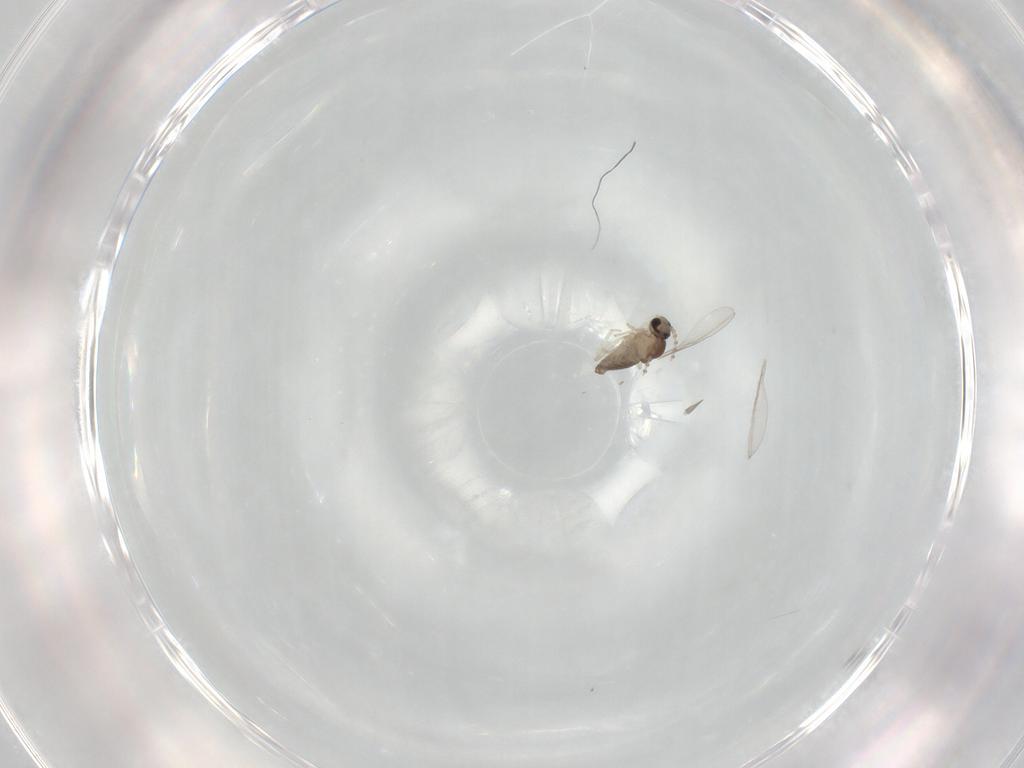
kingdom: Animalia
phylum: Arthropoda
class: Insecta
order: Diptera
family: Cecidomyiidae
